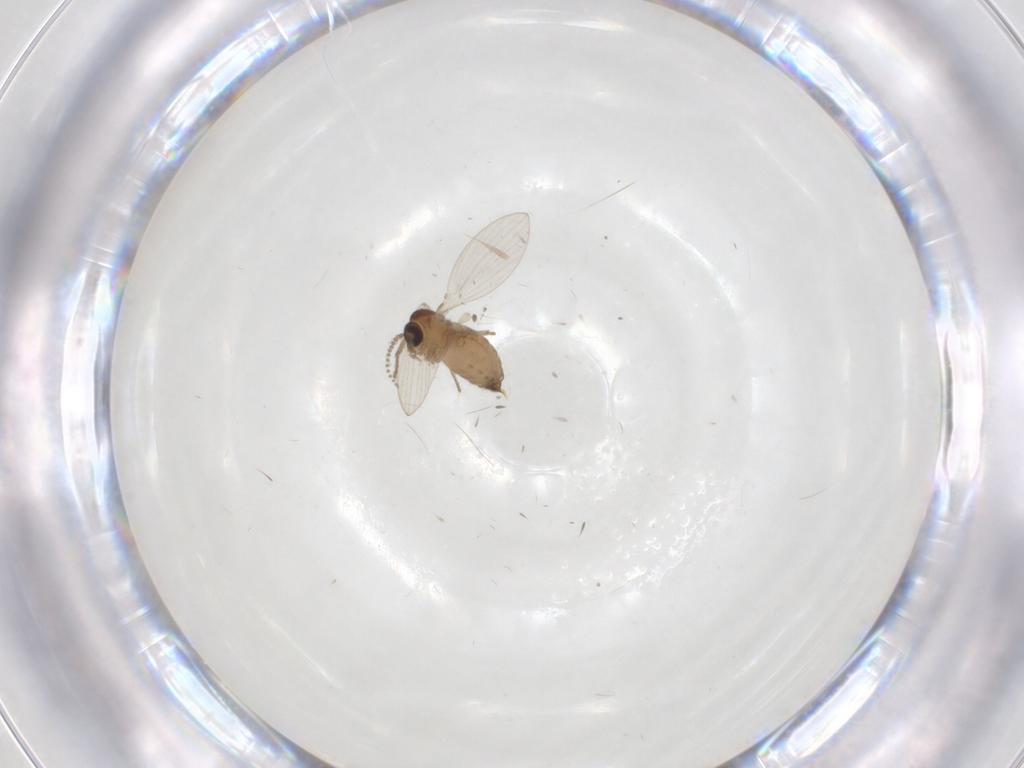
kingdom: Animalia
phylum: Arthropoda
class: Insecta
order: Diptera
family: Psychodidae
